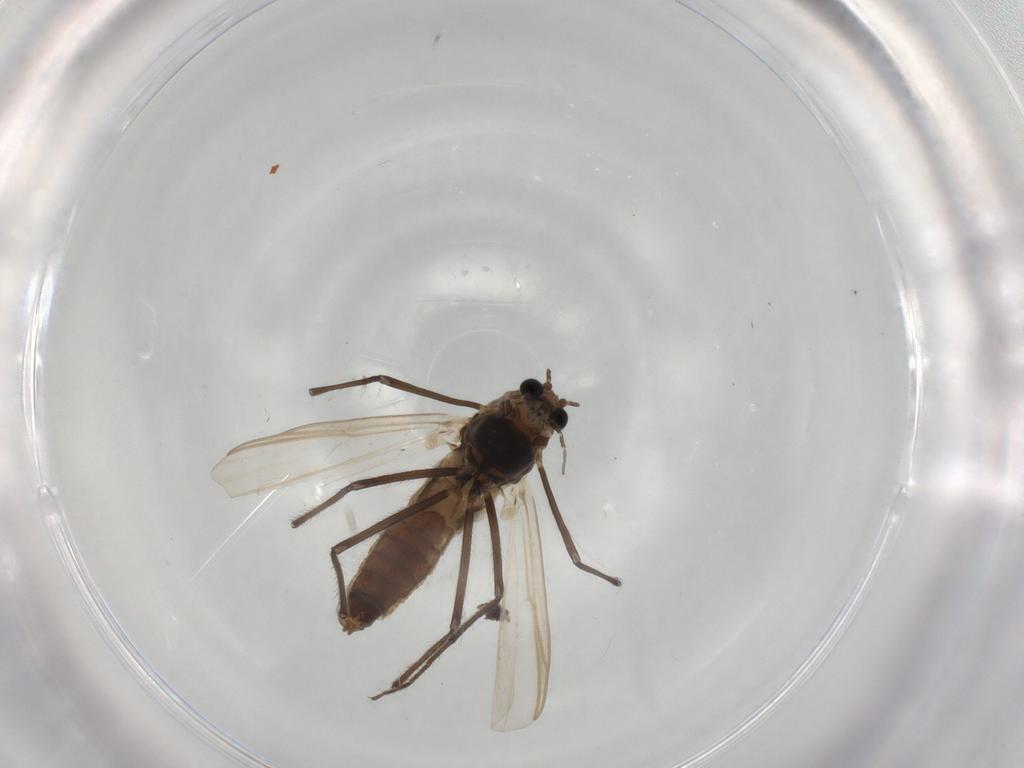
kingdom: Animalia
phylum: Arthropoda
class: Insecta
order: Diptera
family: Chironomidae
